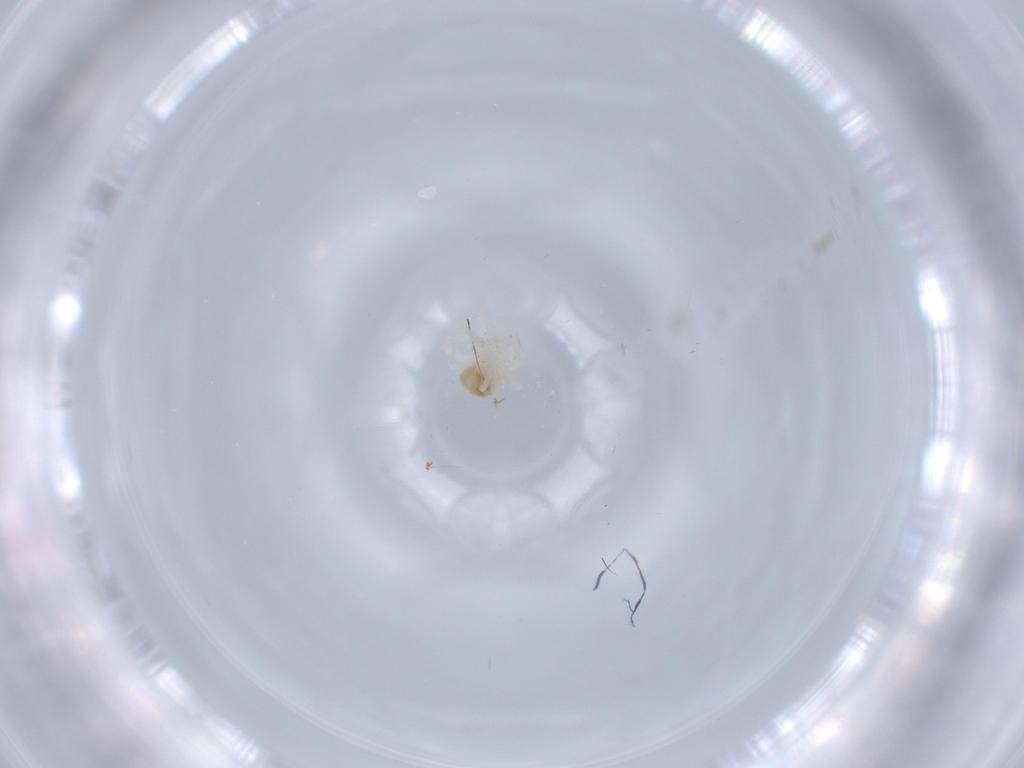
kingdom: Animalia
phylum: Arthropoda
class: Arachnida
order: Trombidiformes
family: Anystidae
